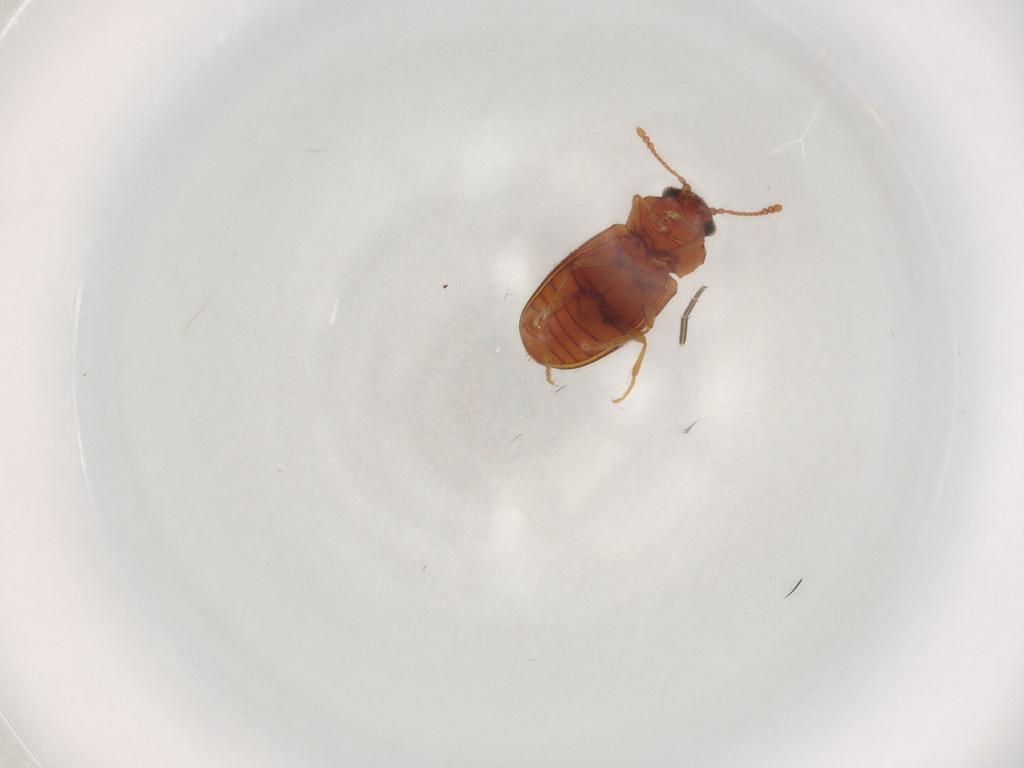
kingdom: Animalia
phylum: Arthropoda
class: Insecta
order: Coleoptera
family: Cryptophagidae
